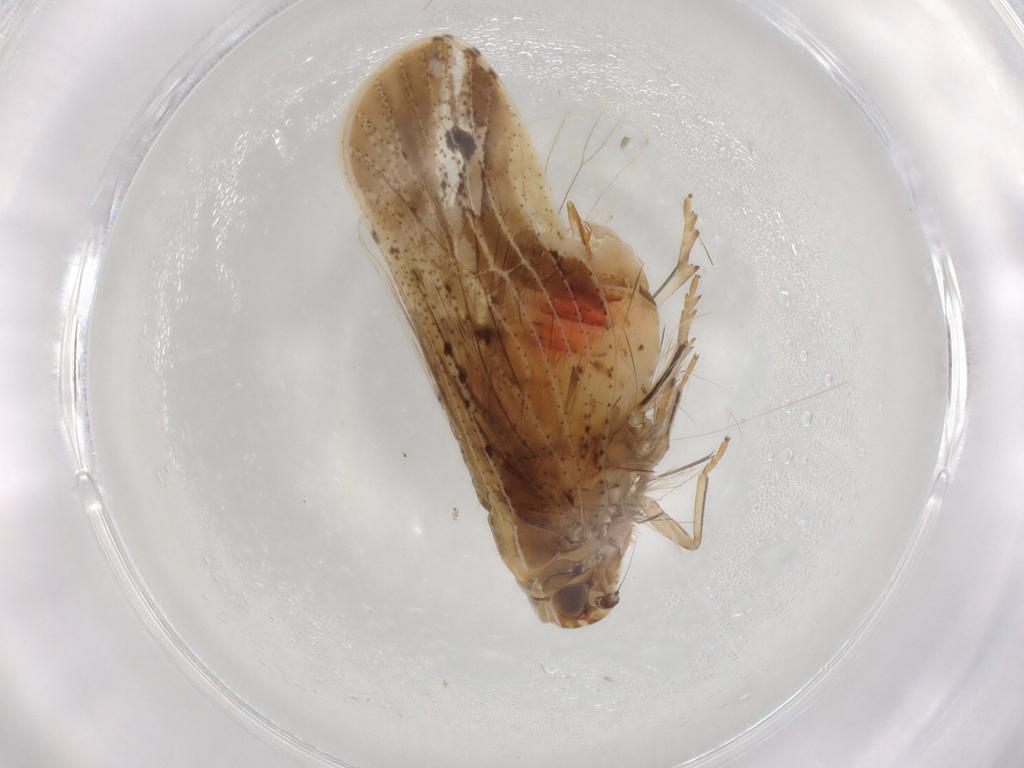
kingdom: Animalia
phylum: Arthropoda
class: Insecta
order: Hemiptera
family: Cixiidae
